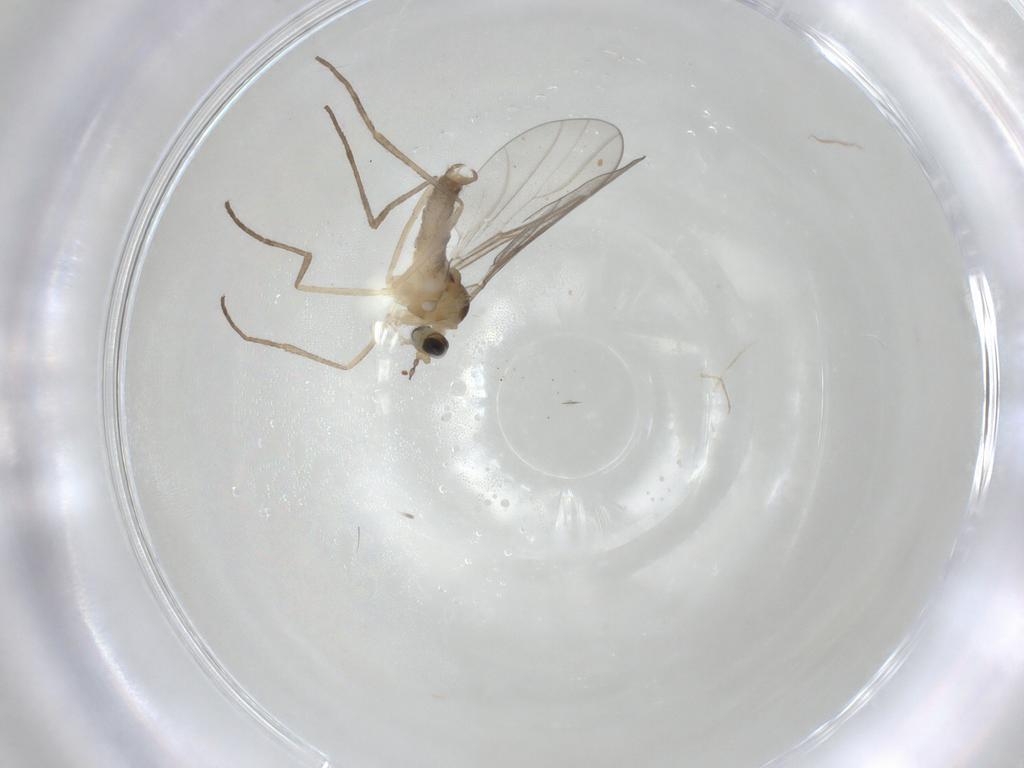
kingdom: Animalia
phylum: Arthropoda
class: Insecta
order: Diptera
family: Cecidomyiidae
